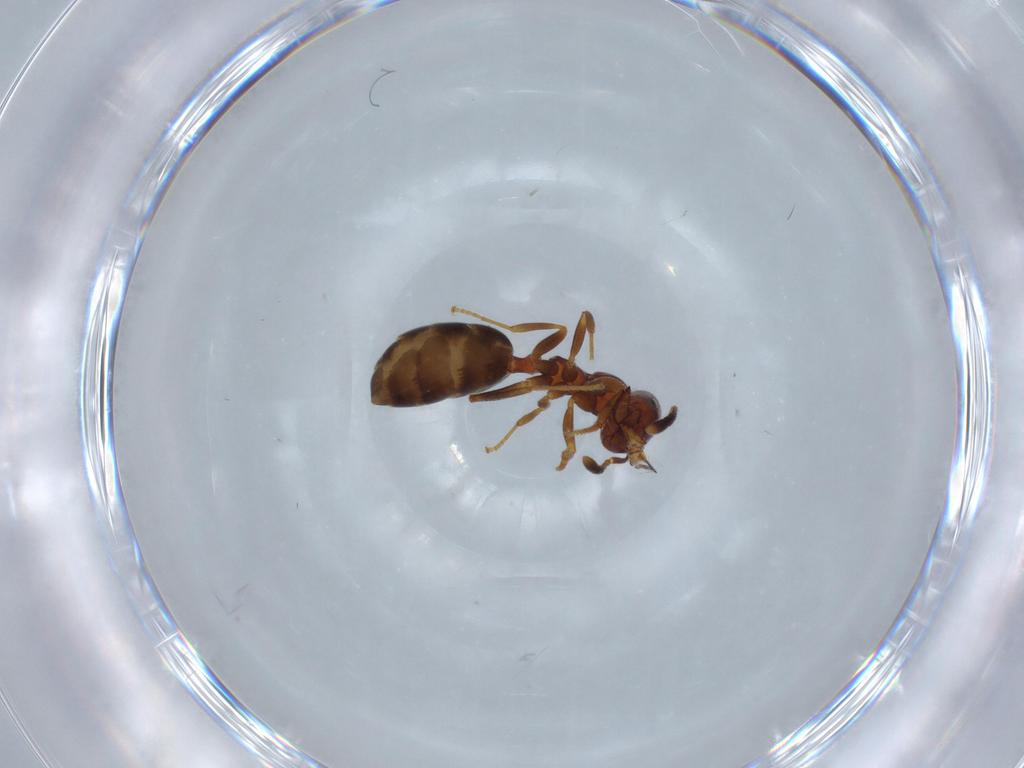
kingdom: Animalia
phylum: Arthropoda
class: Insecta
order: Hymenoptera
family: Formicidae
